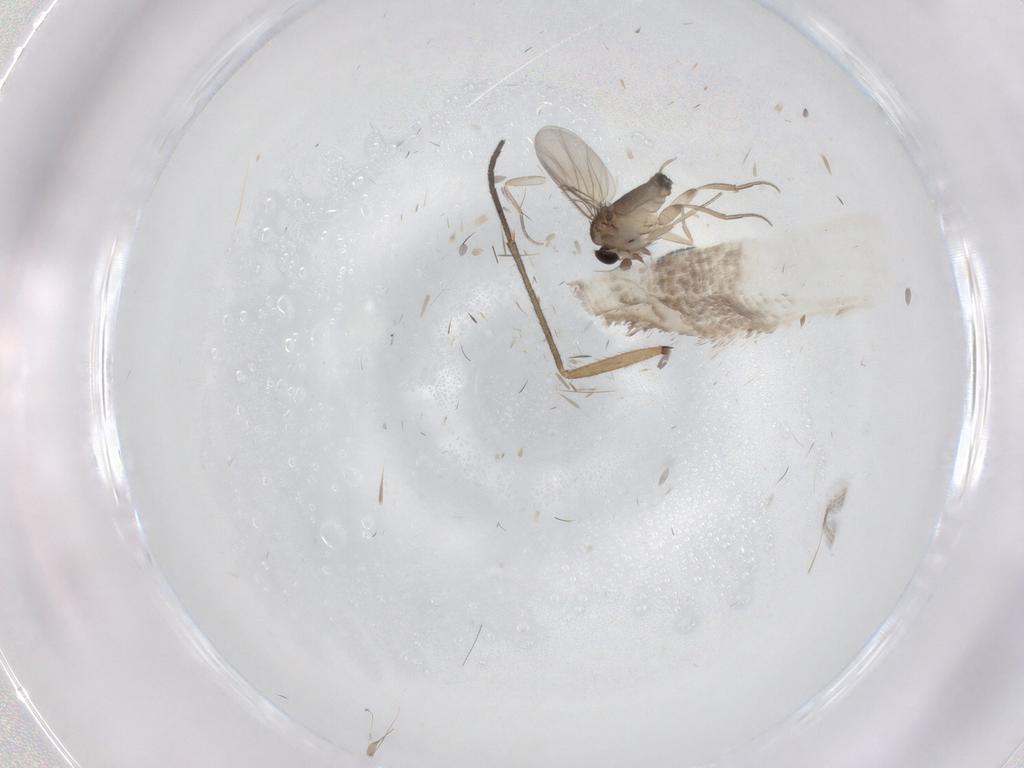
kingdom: Animalia
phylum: Arthropoda
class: Insecta
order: Diptera
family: Phoridae
